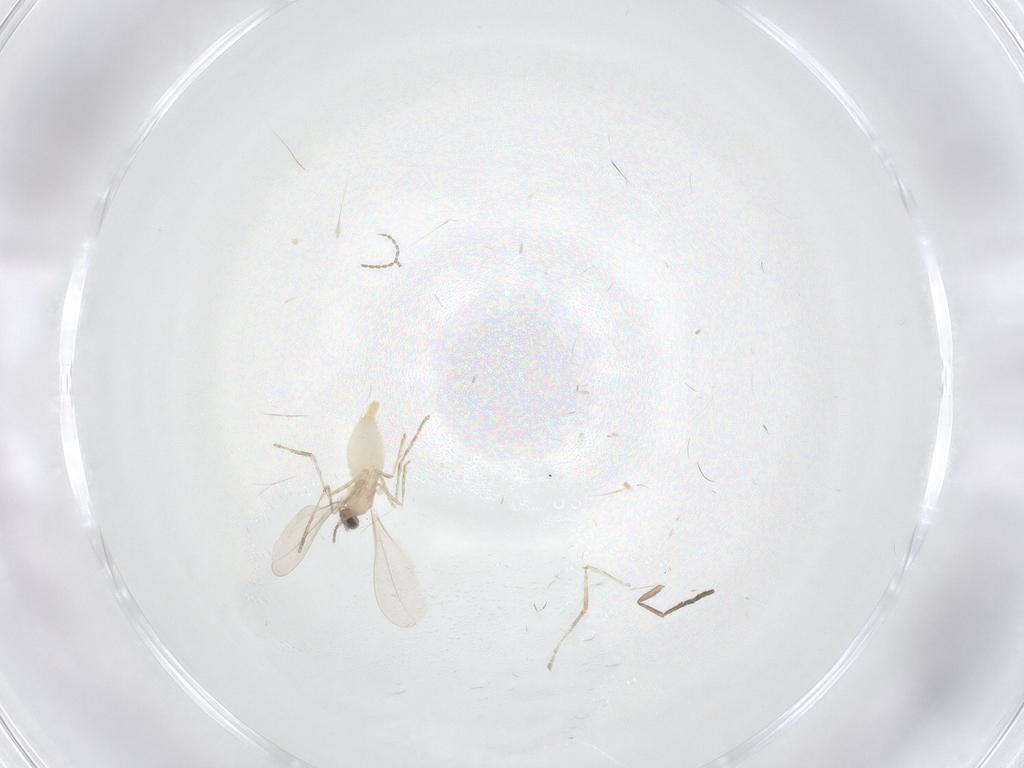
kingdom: Animalia
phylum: Arthropoda
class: Insecta
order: Diptera
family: Cecidomyiidae
